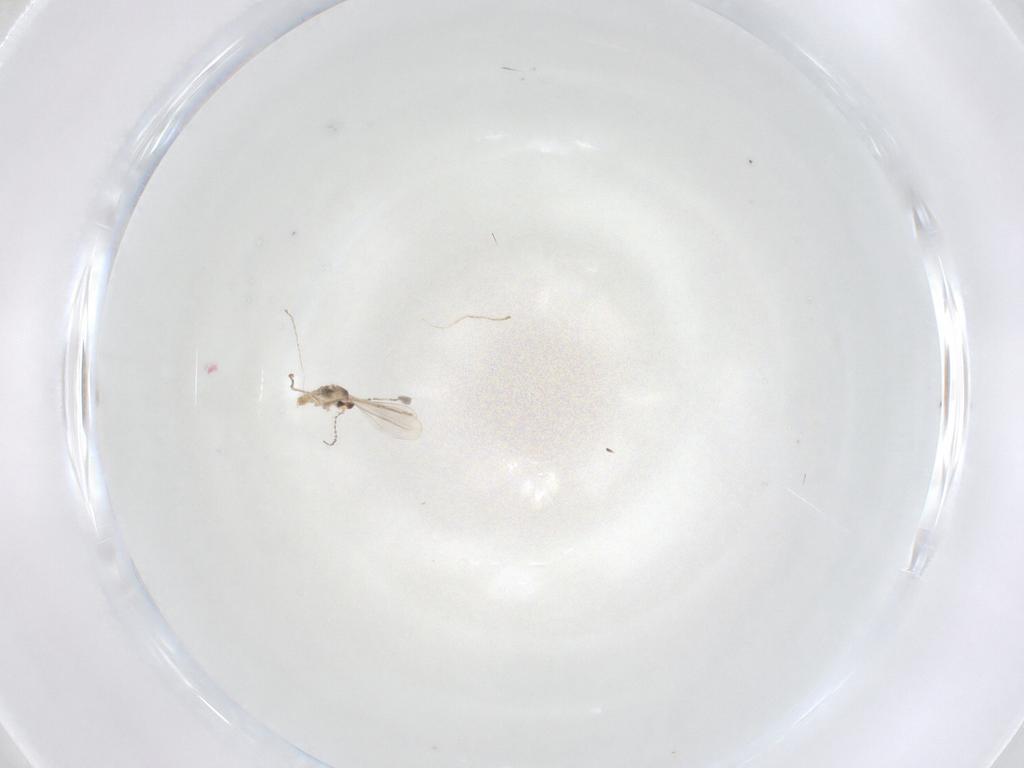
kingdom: Animalia
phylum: Arthropoda
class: Insecta
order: Diptera
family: Cecidomyiidae
